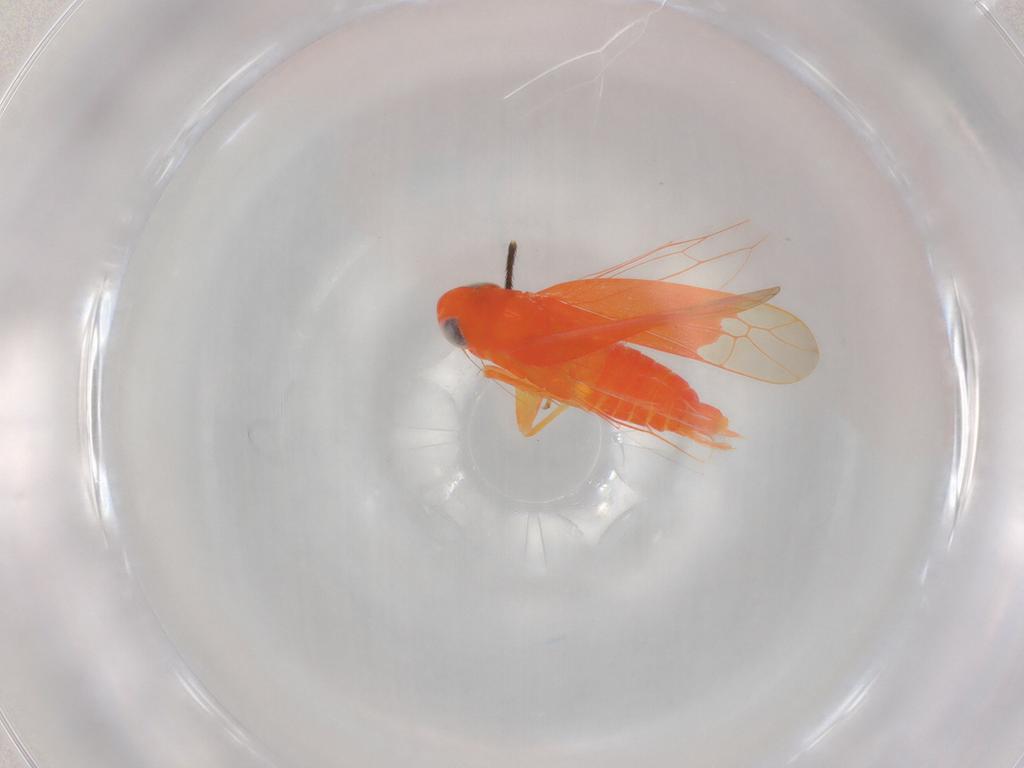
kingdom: Animalia
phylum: Arthropoda
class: Insecta
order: Hemiptera
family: Cicadellidae
